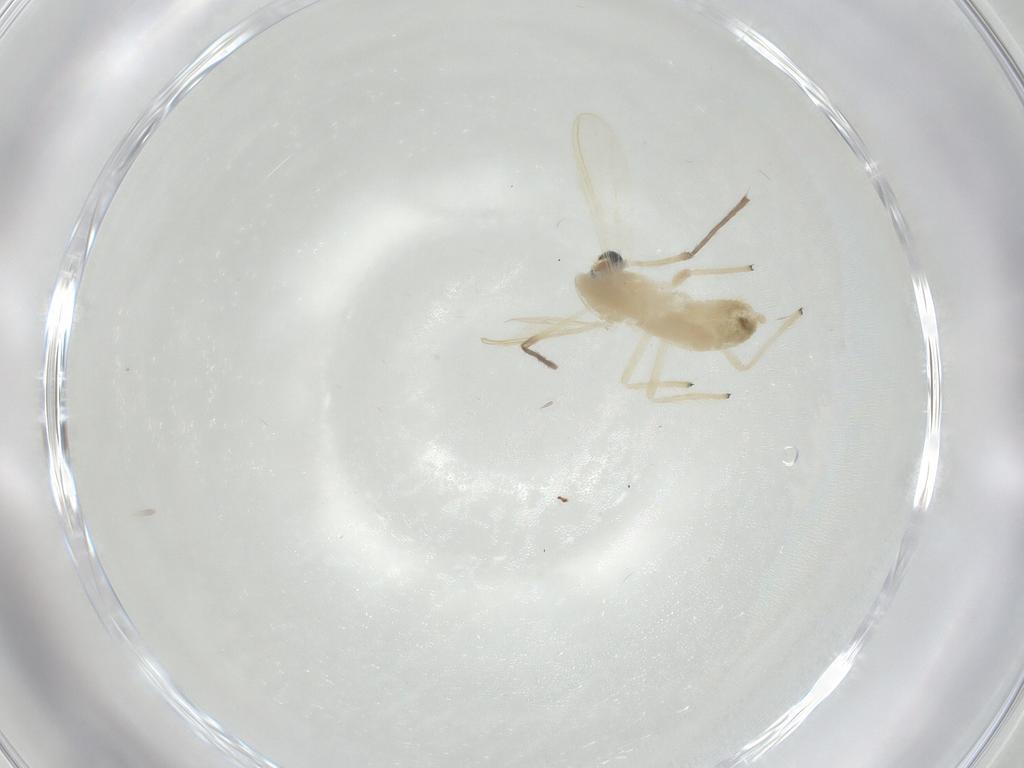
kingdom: Animalia
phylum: Arthropoda
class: Insecta
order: Diptera
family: Chironomidae
